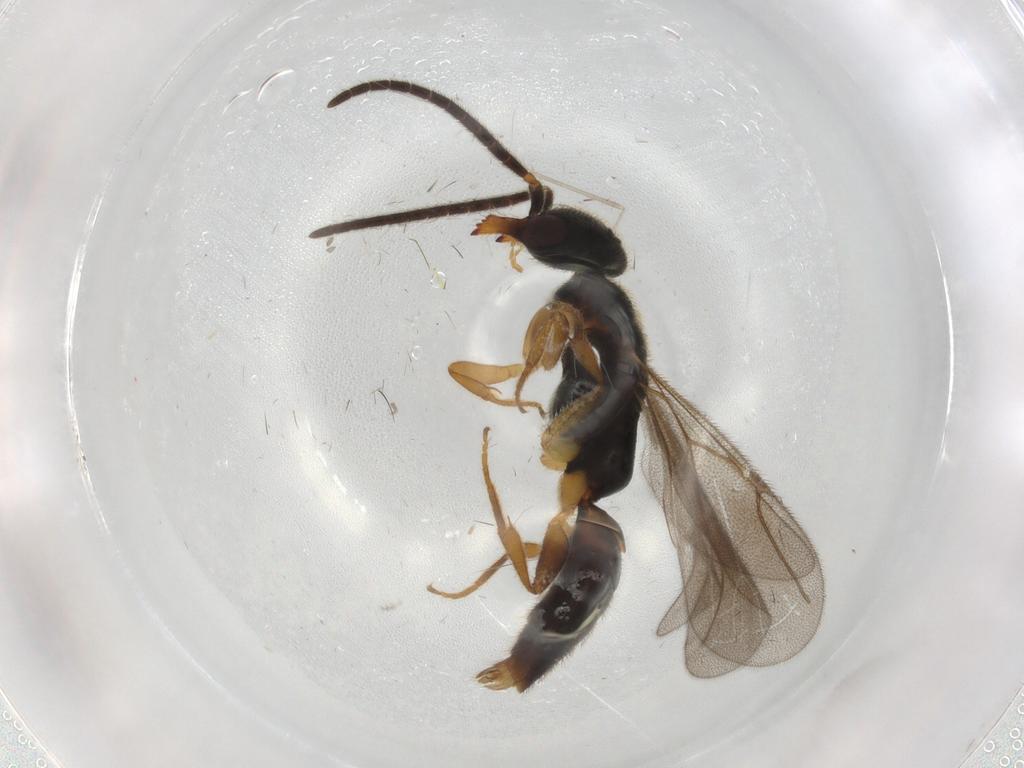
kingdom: Animalia
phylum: Arthropoda
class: Insecta
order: Hymenoptera
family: Bethylidae
